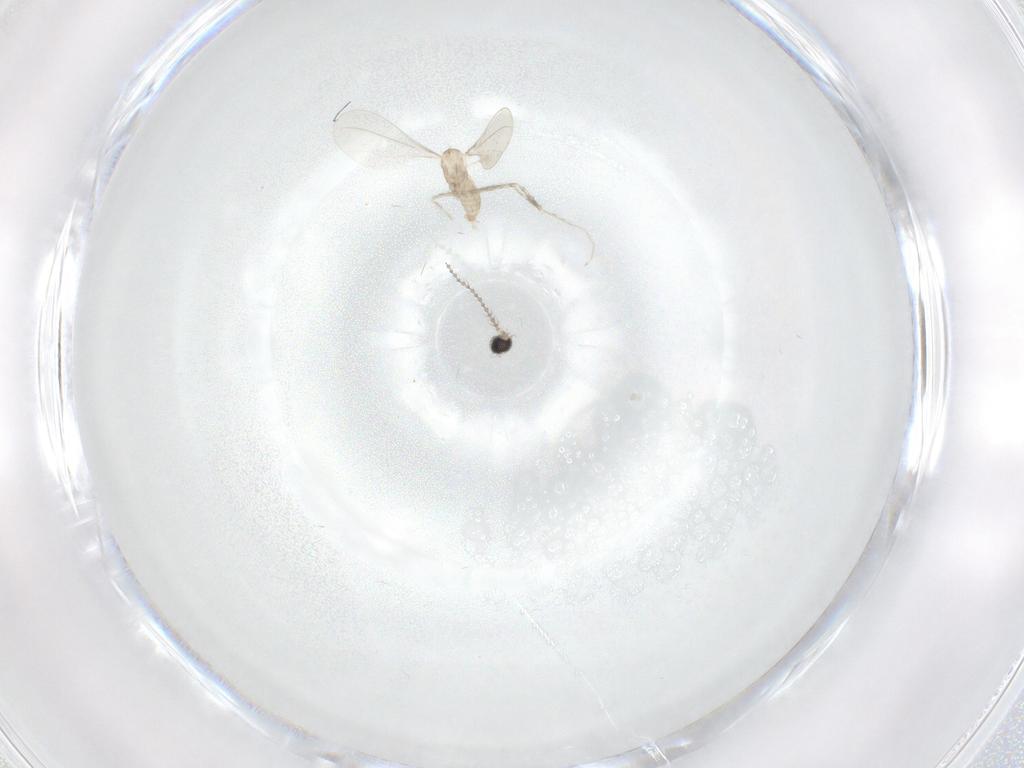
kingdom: Animalia
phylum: Arthropoda
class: Insecta
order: Diptera
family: Cecidomyiidae
